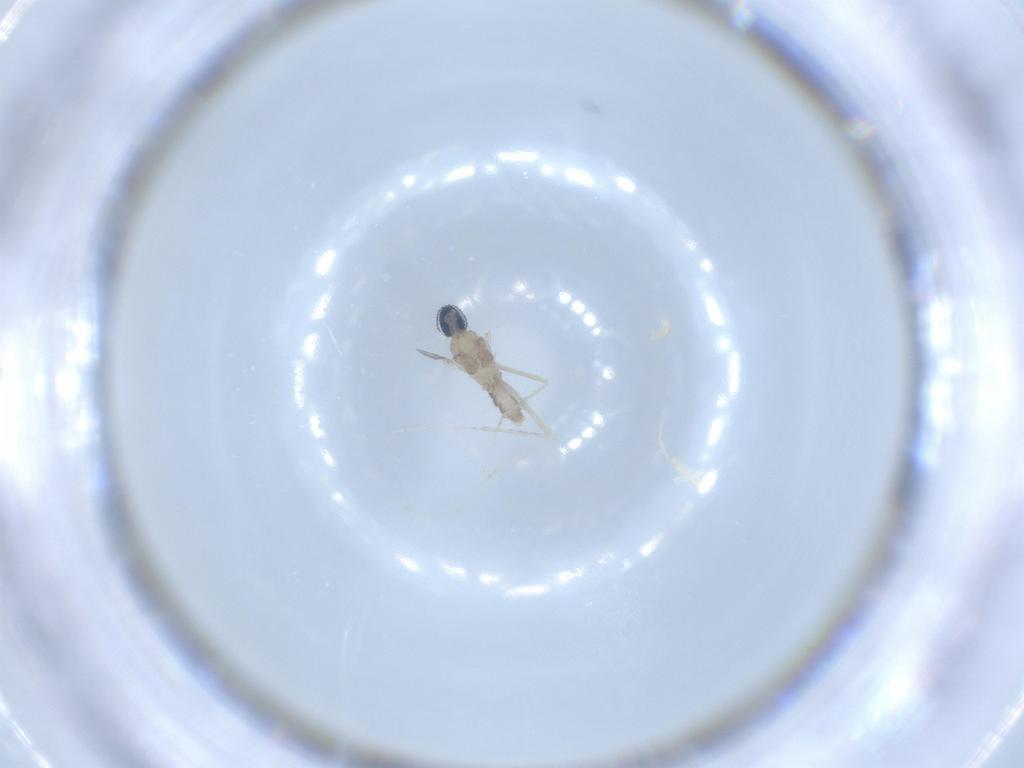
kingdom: Animalia
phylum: Arthropoda
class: Insecta
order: Diptera
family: Cecidomyiidae
